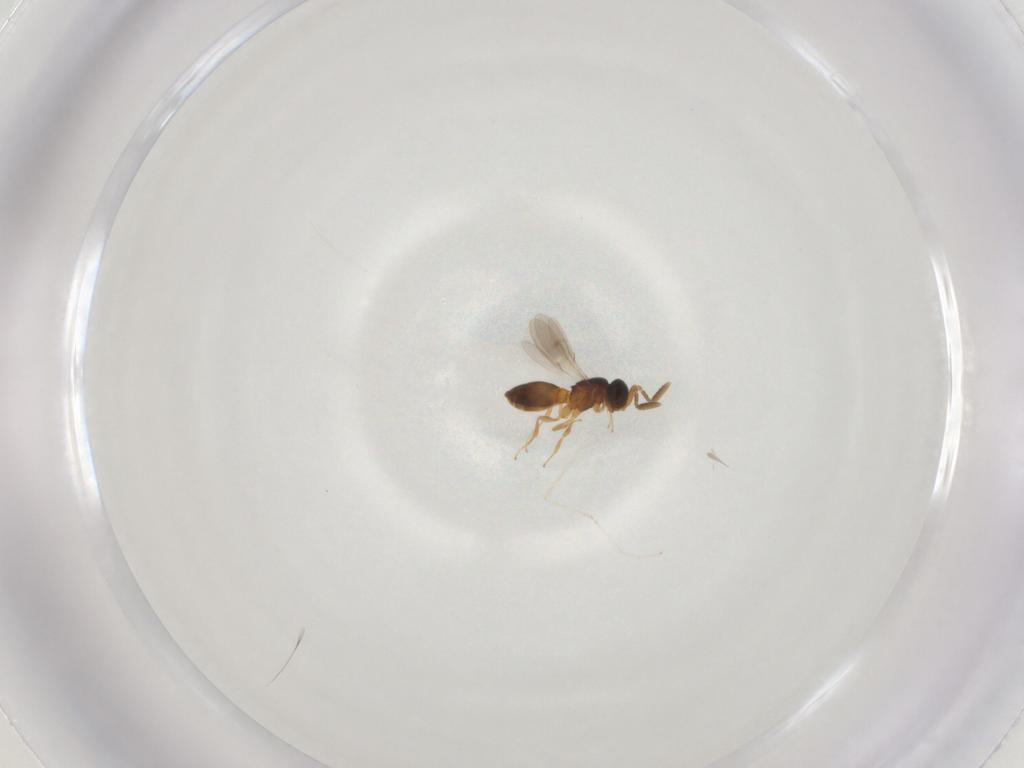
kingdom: Animalia
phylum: Arthropoda
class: Insecta
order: Hymenoptera
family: Scelionidae
